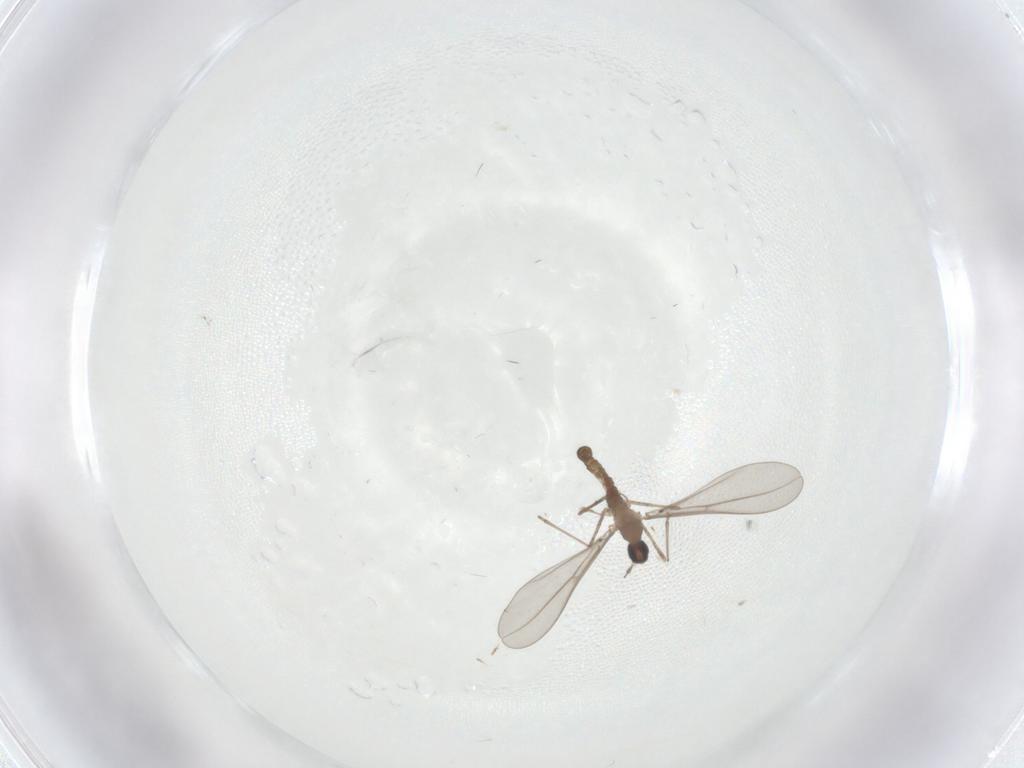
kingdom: Animalia
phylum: Arthropoda
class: Insecta
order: Diptera
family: Cecidomyiidae
